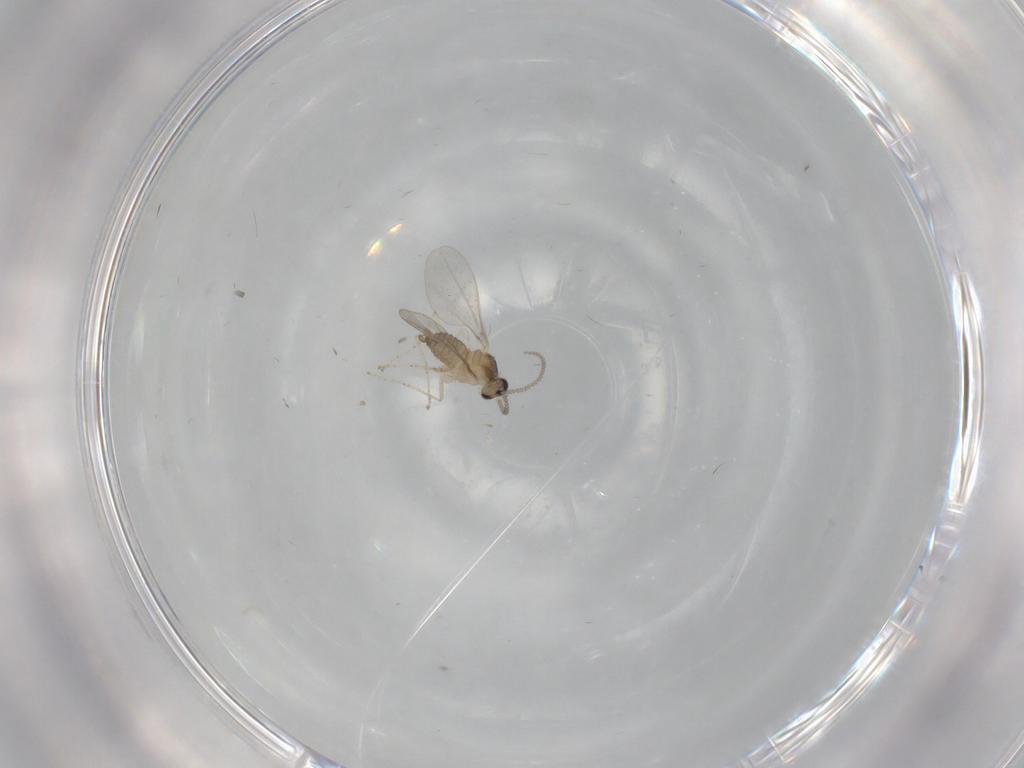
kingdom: Animalia
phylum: Arthropoda
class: Insecta
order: Diptera
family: Cecidomyiidae
